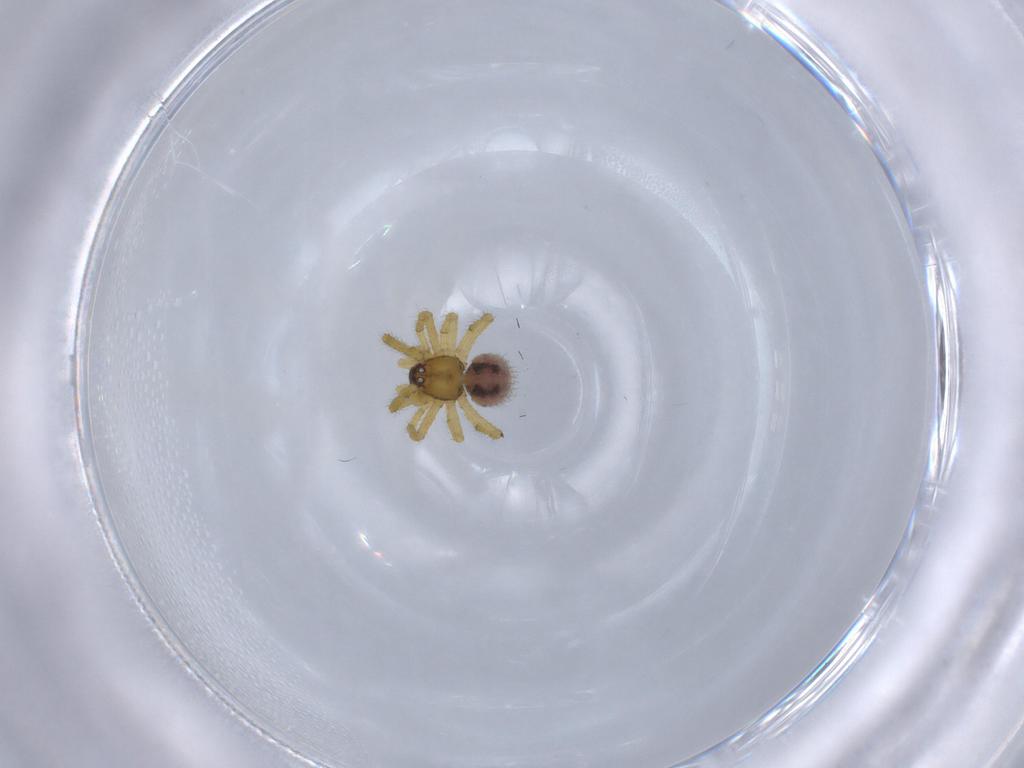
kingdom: Animalia
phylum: Arthropoda
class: Arachnida
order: Araneae
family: Theridiidae
